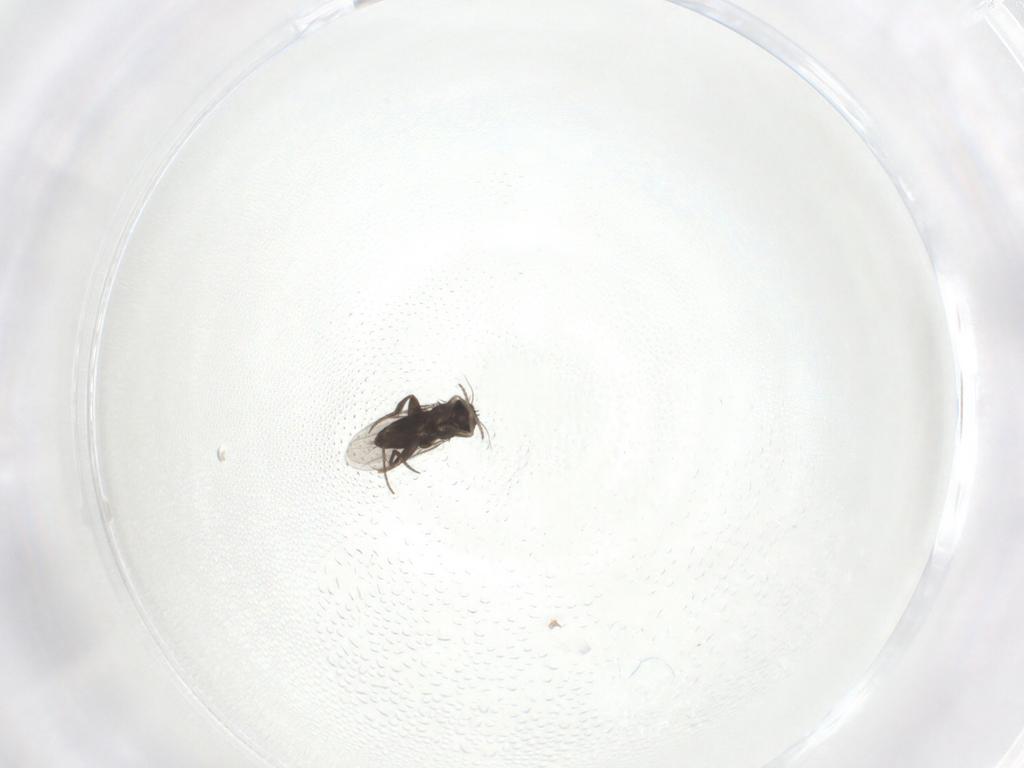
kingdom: Animalia
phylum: Arthropoda
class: Insecta
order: Diptera
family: Phoridae
